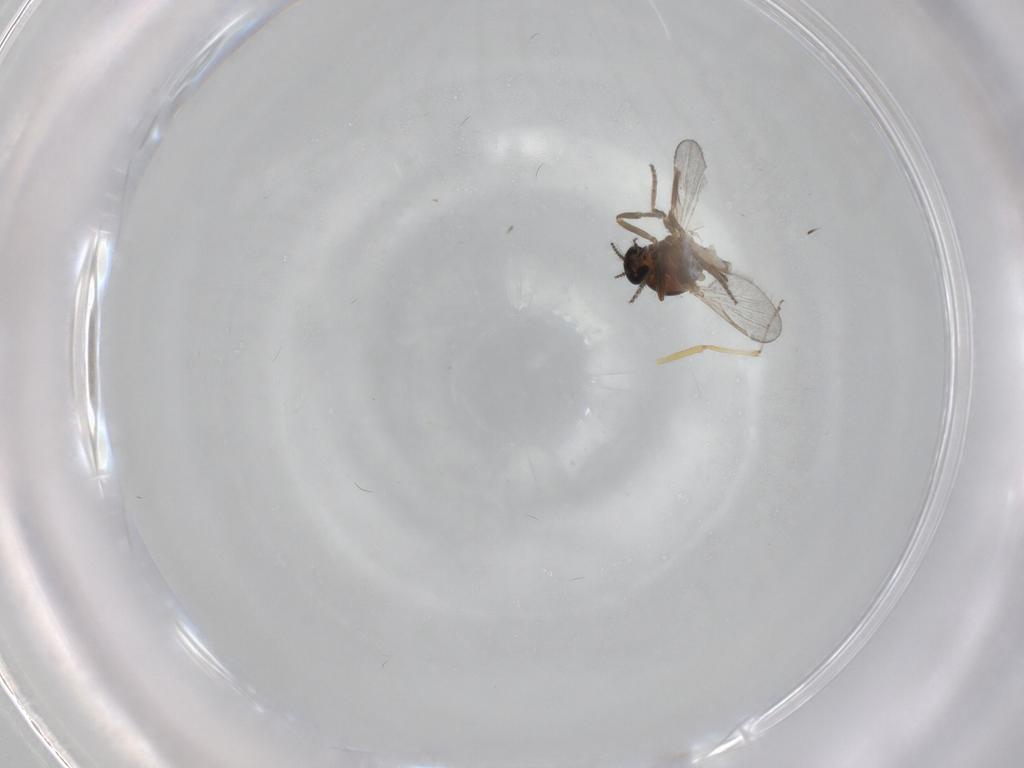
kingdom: Animalia
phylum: Arthropoda
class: Insecta
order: Diptera
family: Ceratopogonidae
